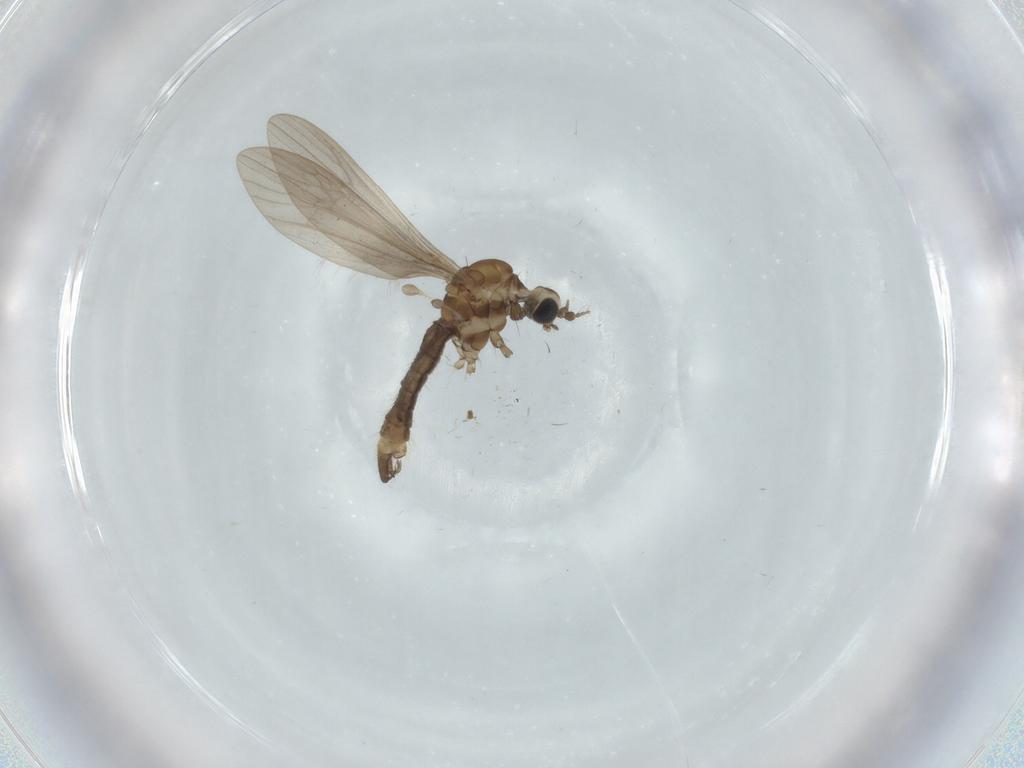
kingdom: Animalia
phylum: Arthropoda
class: Insecta
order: Diptera
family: Limoniidae
